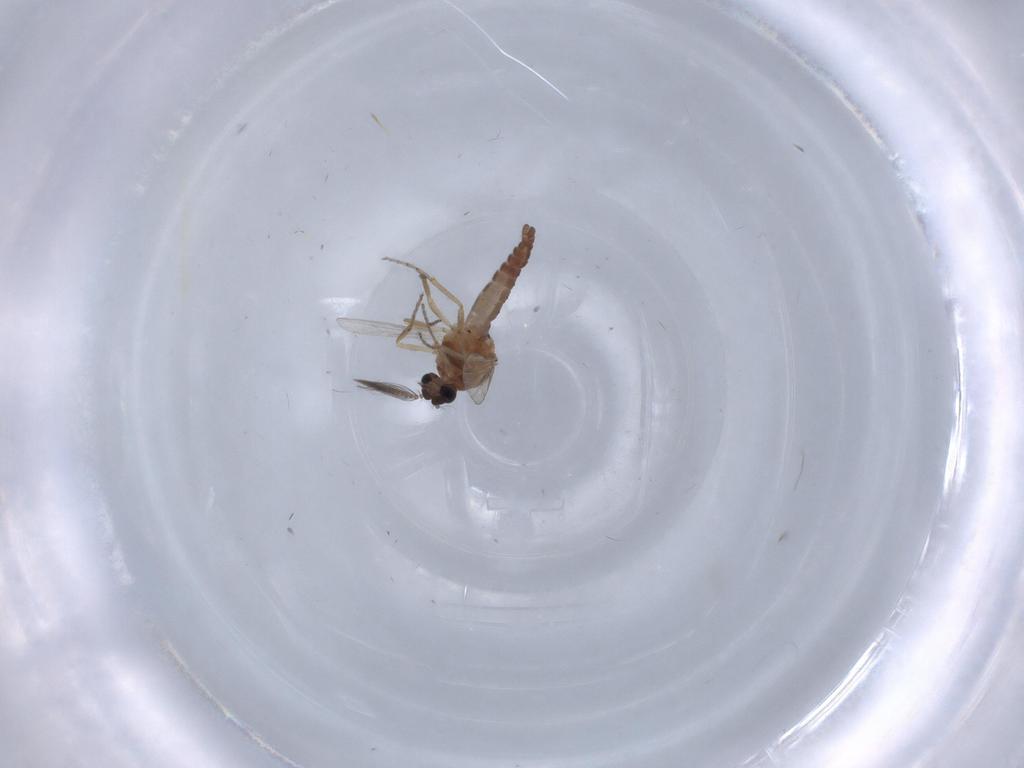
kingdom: Animalia
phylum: Arthropoda
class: Insecta
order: Diptera
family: Ceratopogonidae
